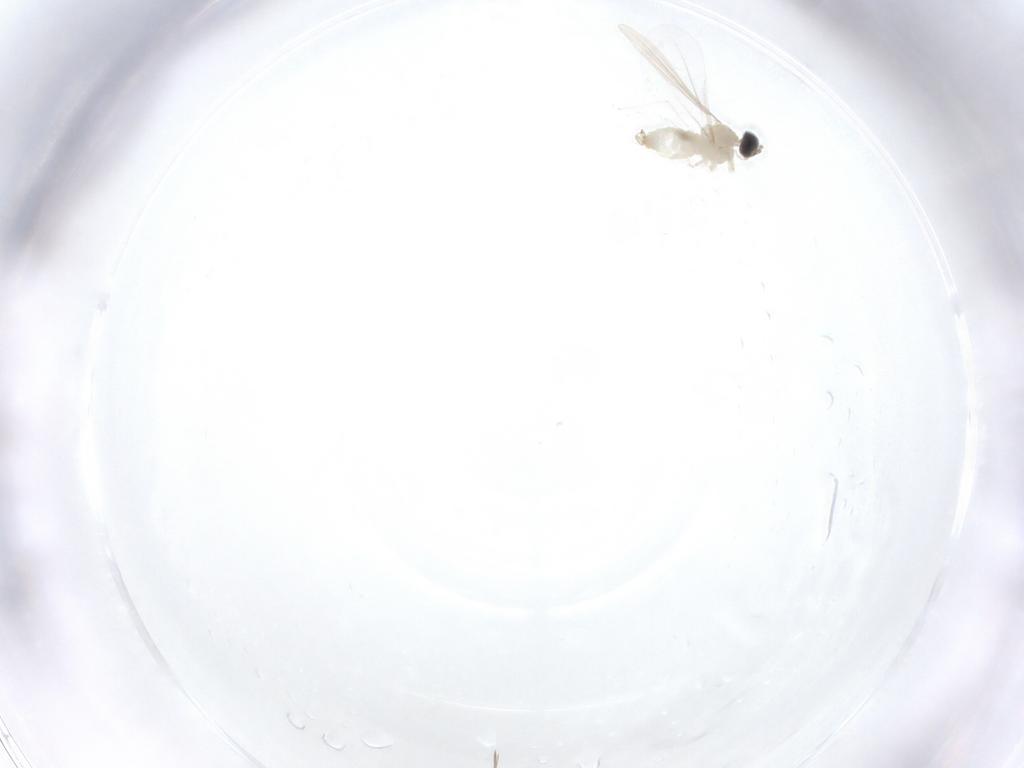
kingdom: Animalia
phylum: Arthropoda
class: Insecta
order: Diptera
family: Cecidomyiidae
